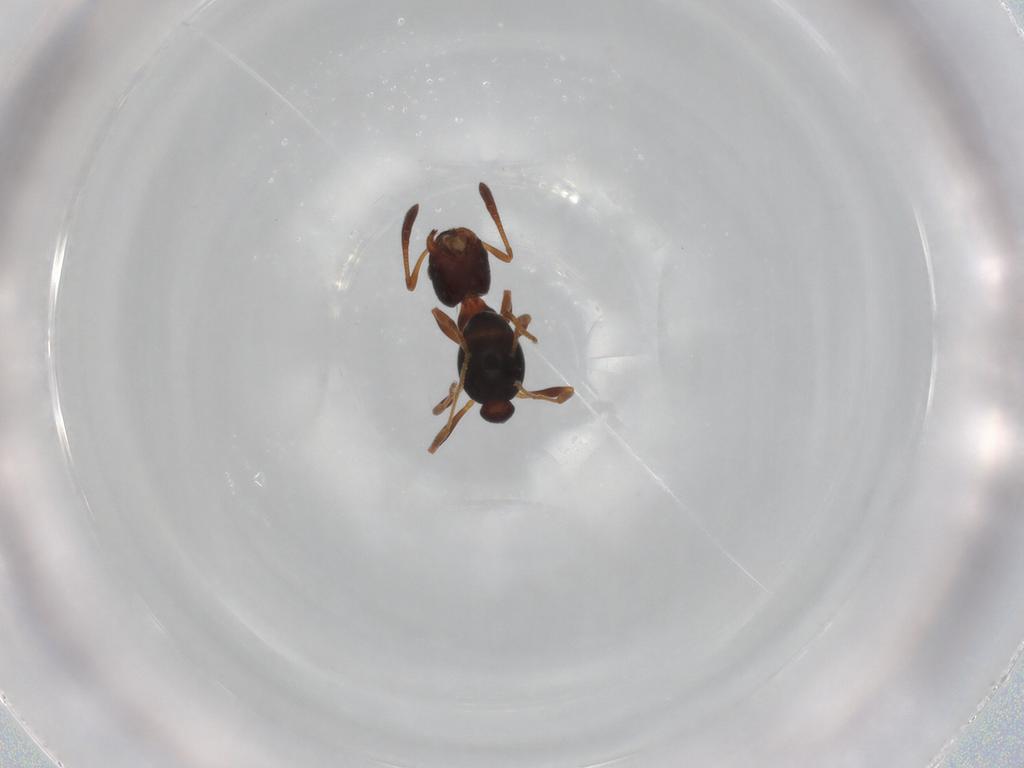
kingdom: Animalia
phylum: Arthropoda
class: Insecta
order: Hymenoptera
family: Formicidae
